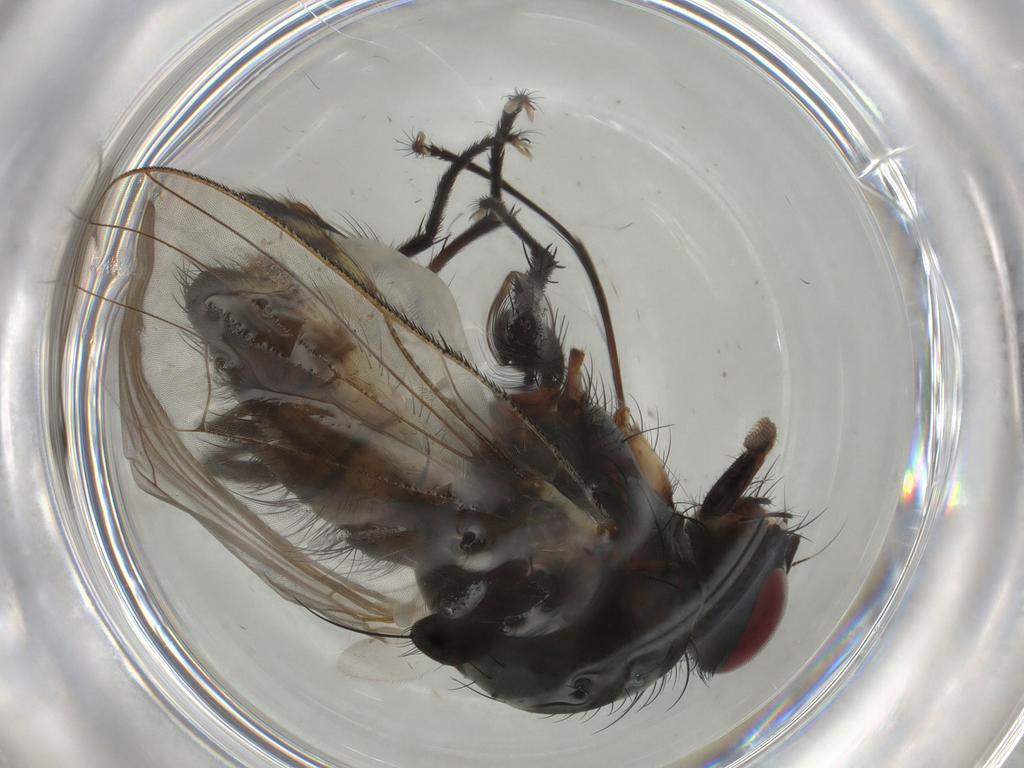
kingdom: Animalia
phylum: Arthropoda
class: Insecta
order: Diptera
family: Anthomyiidae
